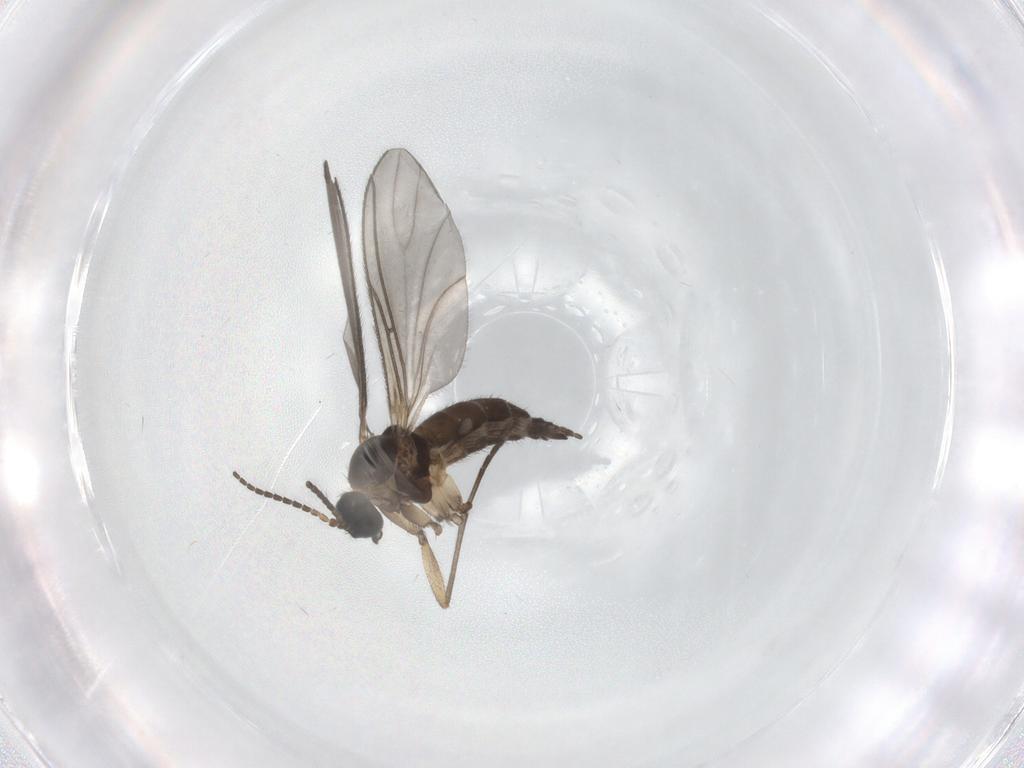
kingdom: Animalia
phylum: Arthropoda
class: Insecta
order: Diptera
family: Sciaridae
